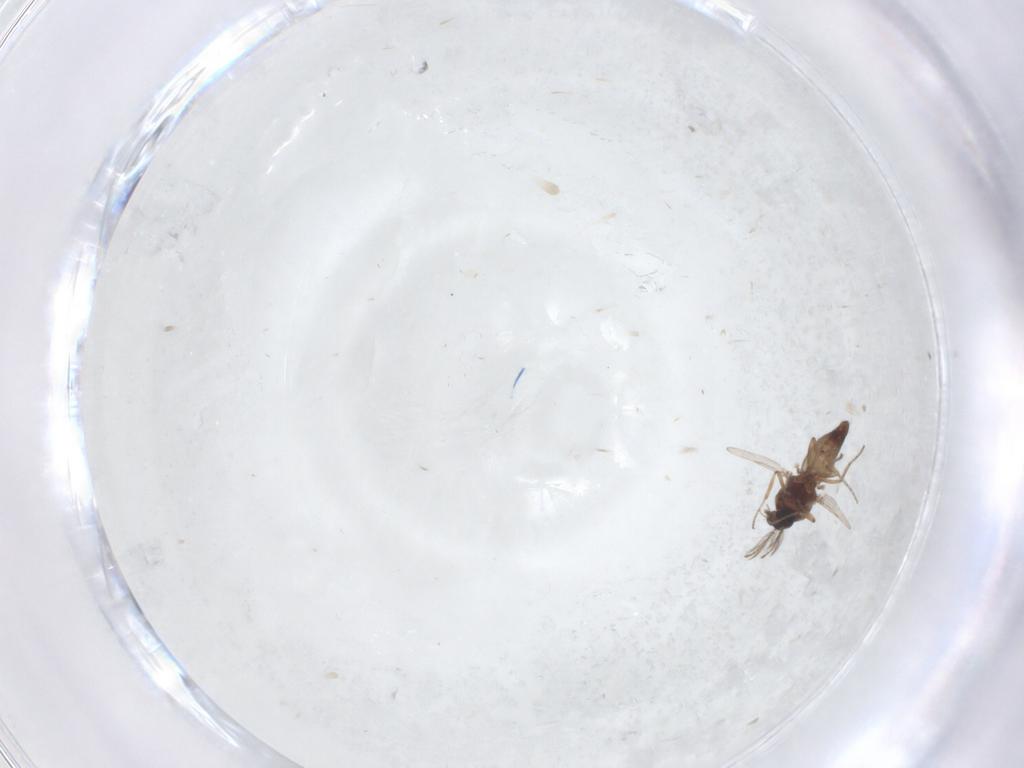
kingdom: Animalia
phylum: Arthropoda
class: Insecta
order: Diptera
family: Ceratopogonidae
